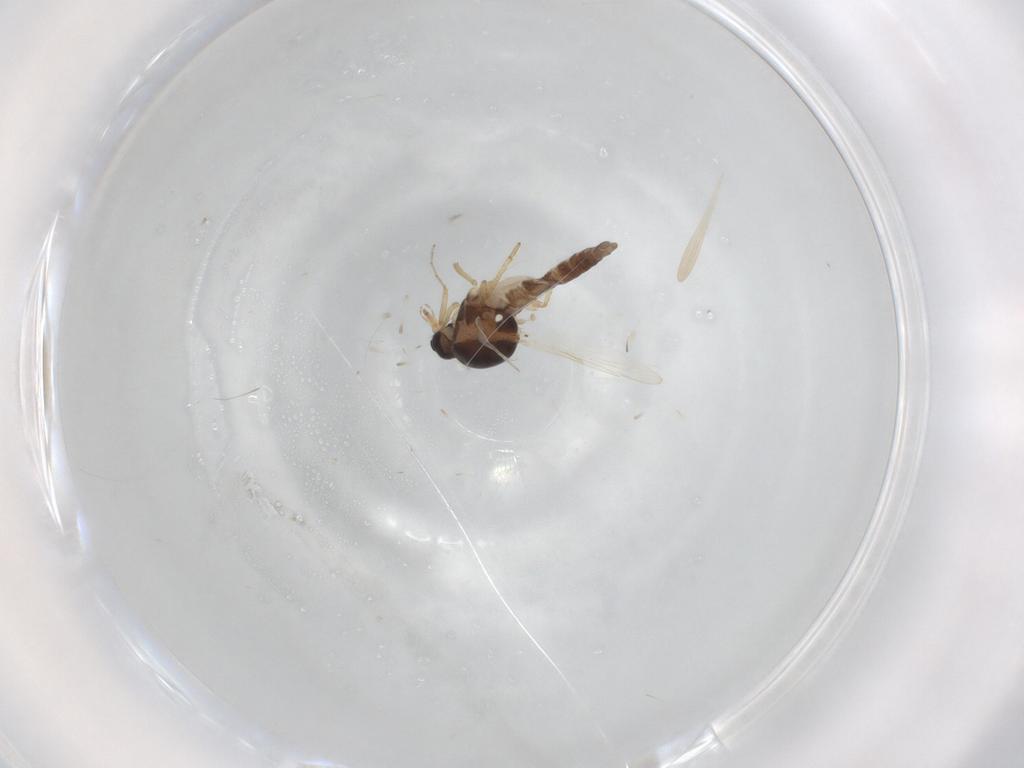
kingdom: Animalia
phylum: Arthropoda
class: Insecta
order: Diptera
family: Ceratopogonidae
